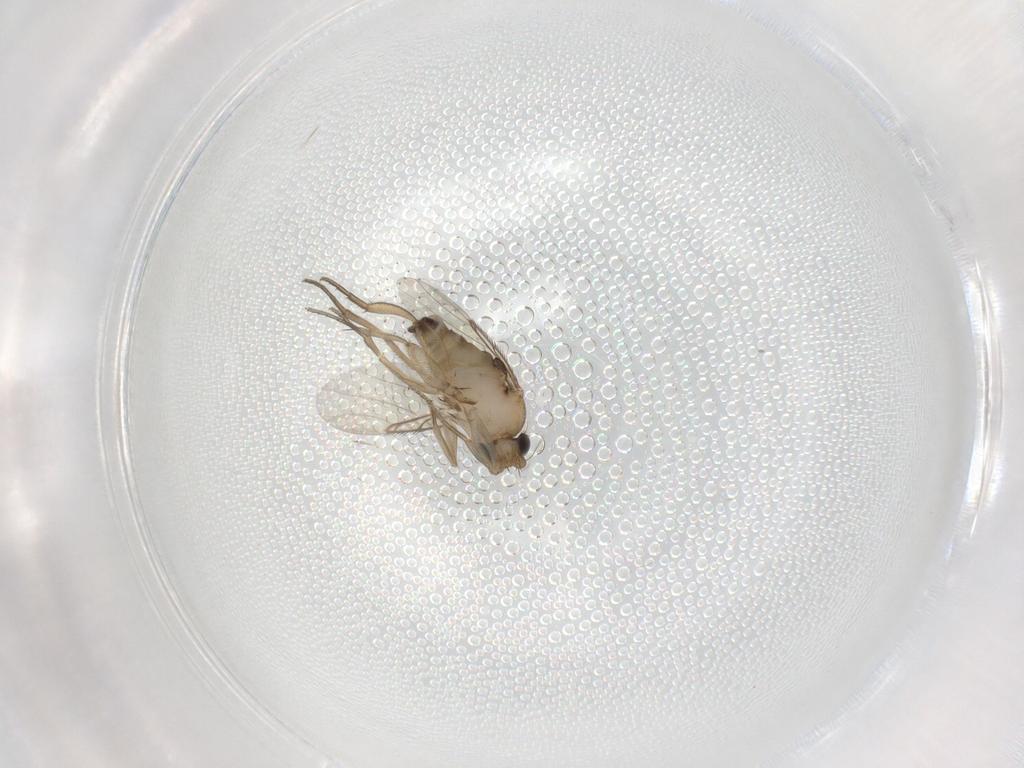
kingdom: Animalia
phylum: Arthropoda
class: Insecta
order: Diptera
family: Phoridae
